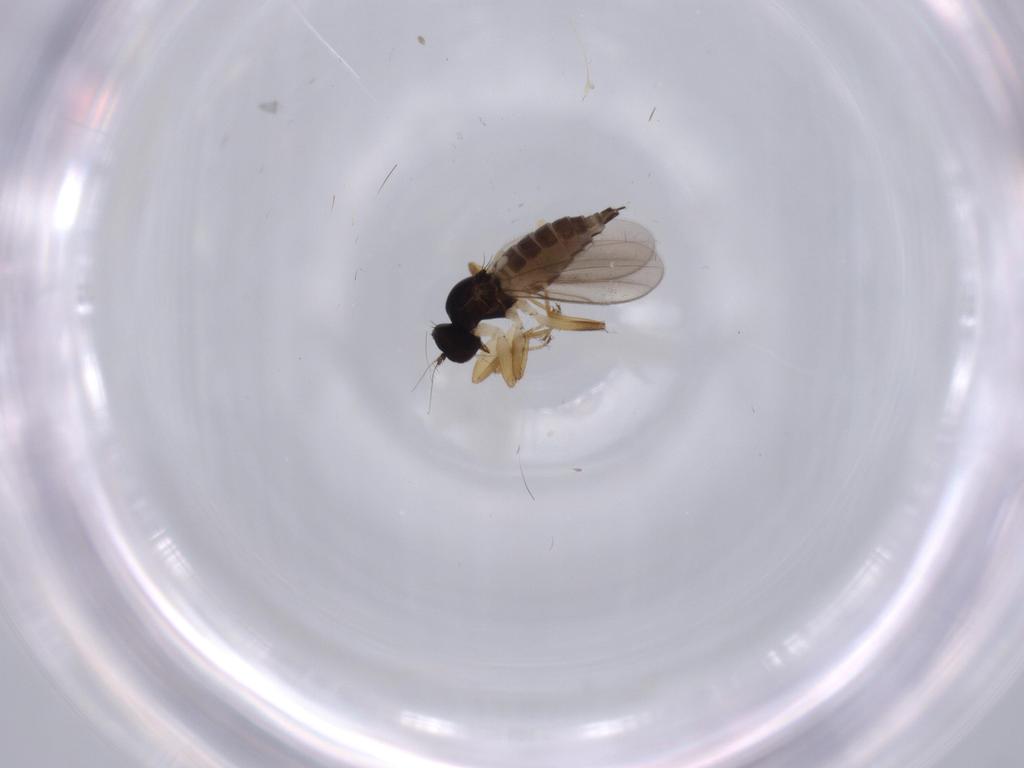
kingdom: Animalia
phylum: Arthropoda
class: Insecta
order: Diptera
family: Hybotidae
